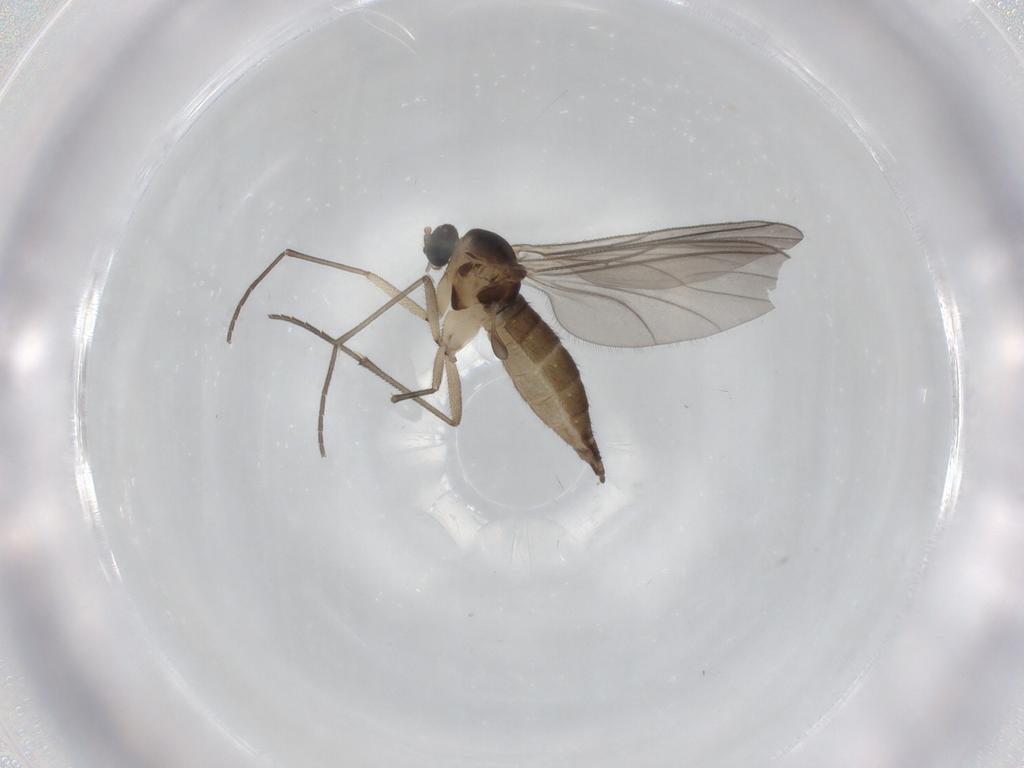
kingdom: Animalia
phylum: Arthropoda
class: Insecta
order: Diptera
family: Sciaridae
